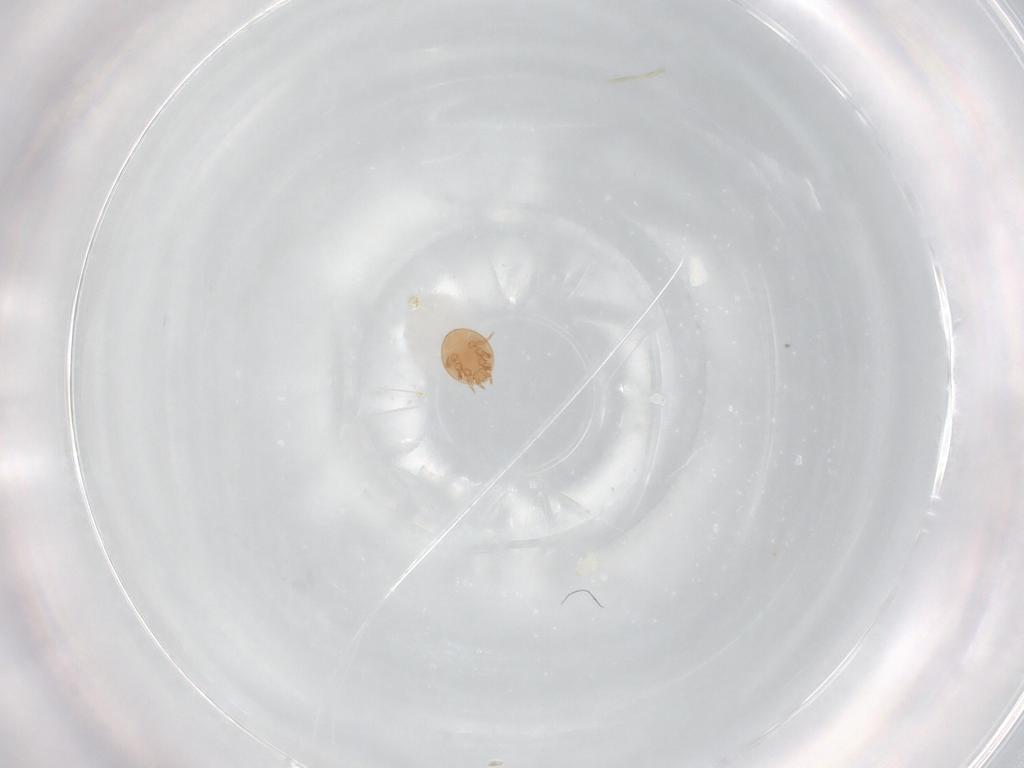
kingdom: Animalia
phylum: Arthropoda
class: Arachnida
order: Mesostigmata
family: Trematuridae
